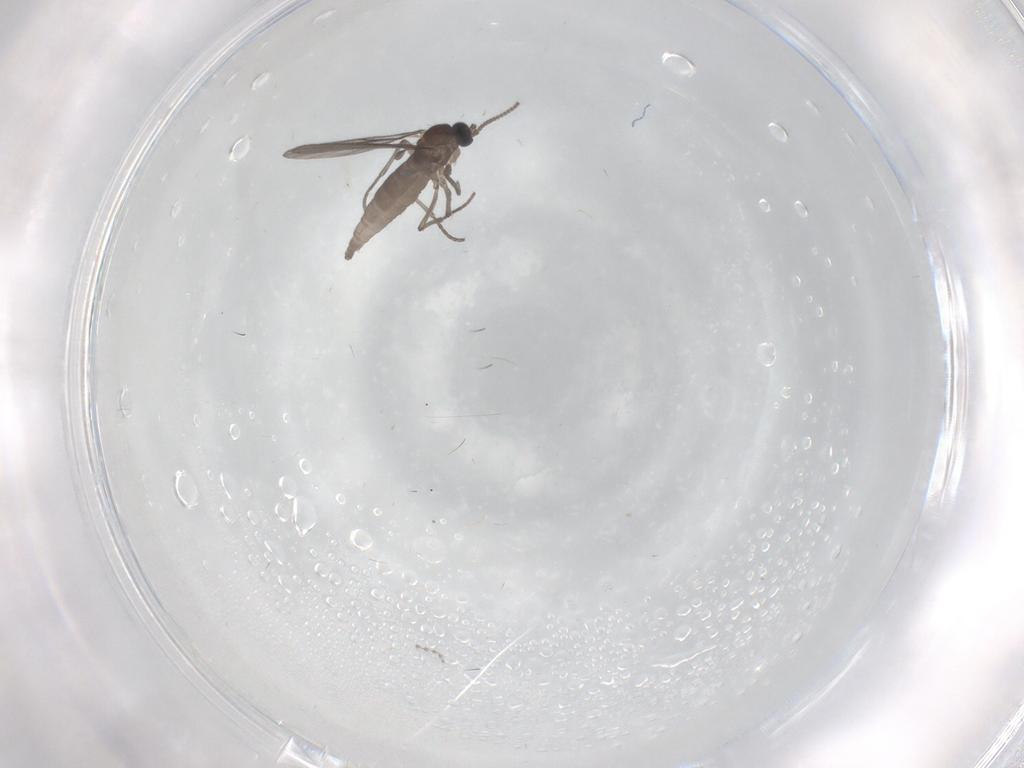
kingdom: Animalia
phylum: Arthropoda
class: Insecta
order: Diptera
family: Sciaridae
